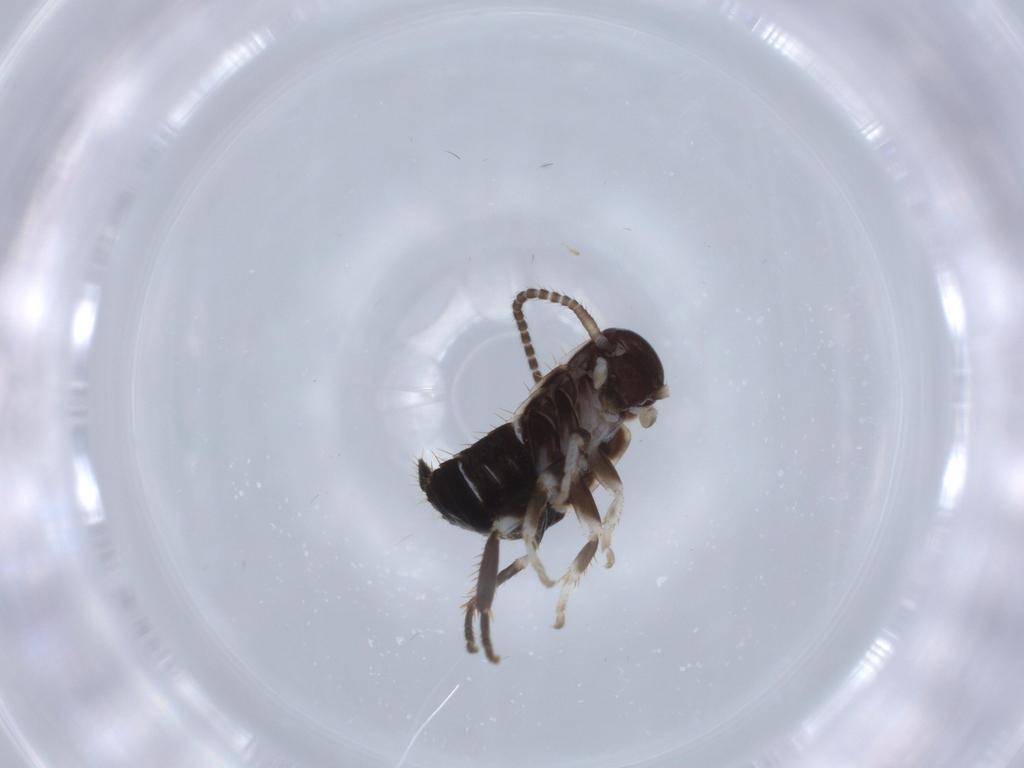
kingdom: Animalia
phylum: Arthropoda
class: Insecta
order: Blattodea
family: Ectobiidae
